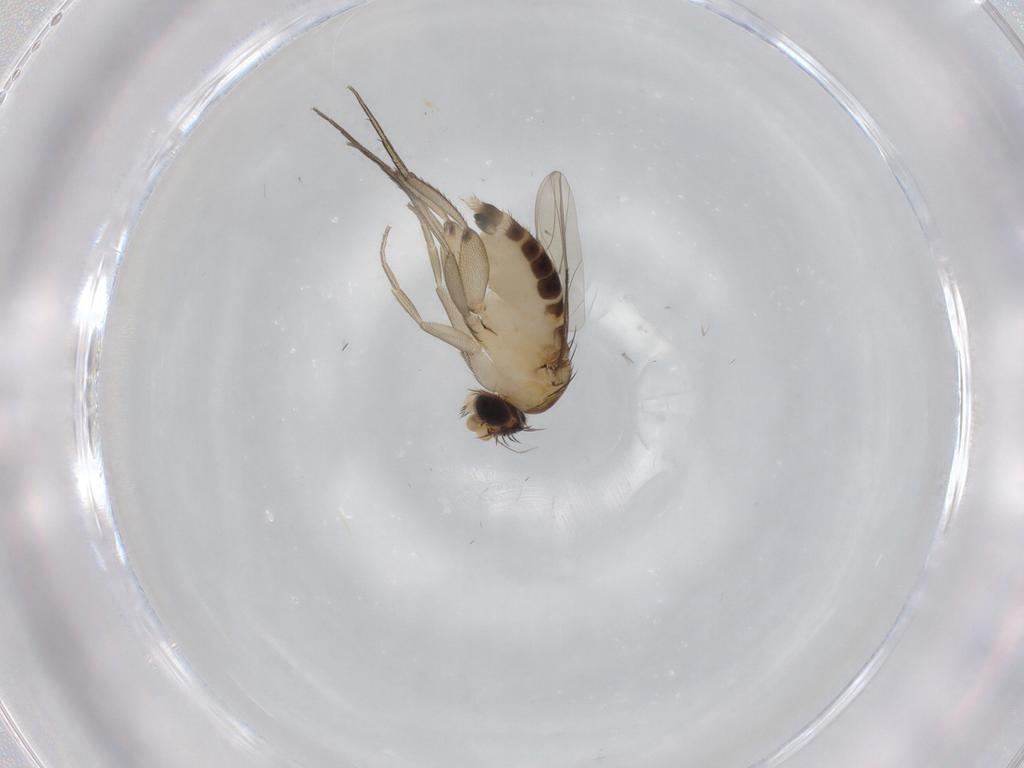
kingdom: Animalia
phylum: Arthropoda
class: Insecta
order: Diptera
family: Phoridae
